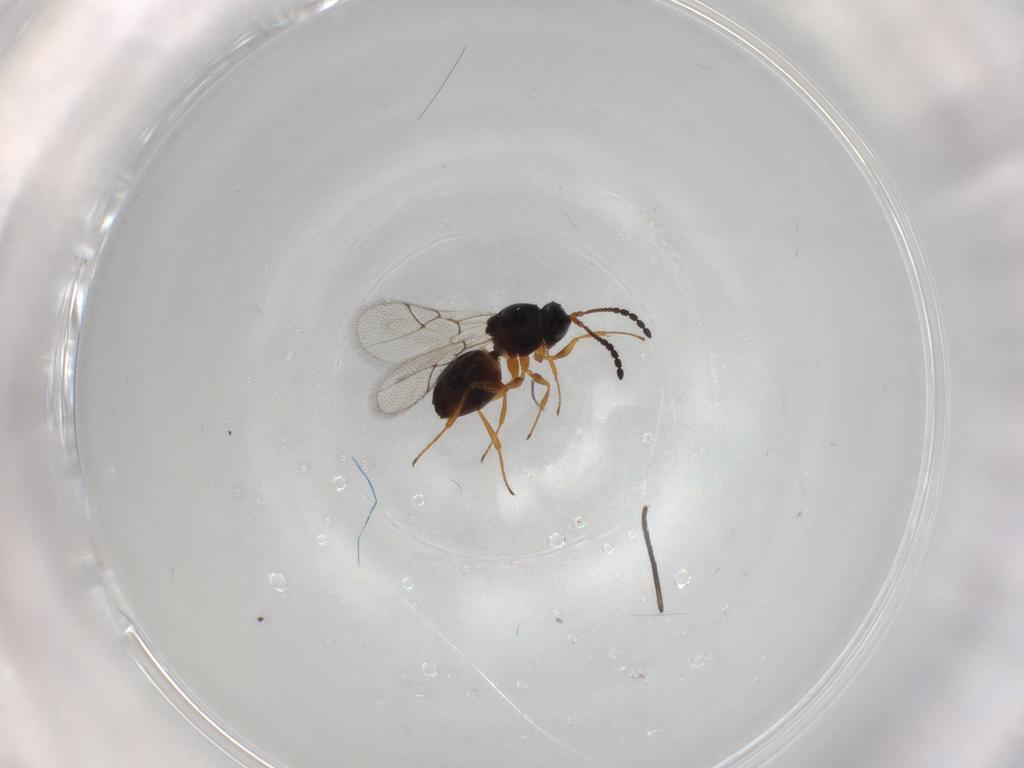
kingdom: Animalia
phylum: Arthropoda
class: Insecta
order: Hymenoptera
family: Figitidae
